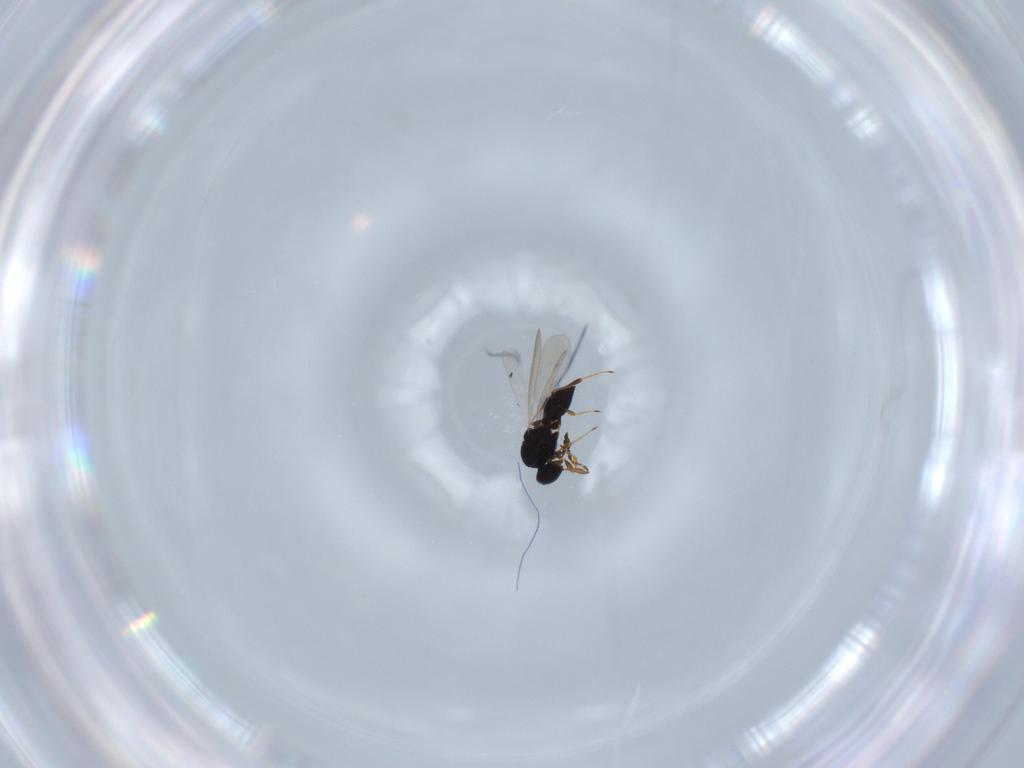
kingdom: Animalia
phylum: Arthropoda
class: Insecta
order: Hymenoptera
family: Platygastridae
